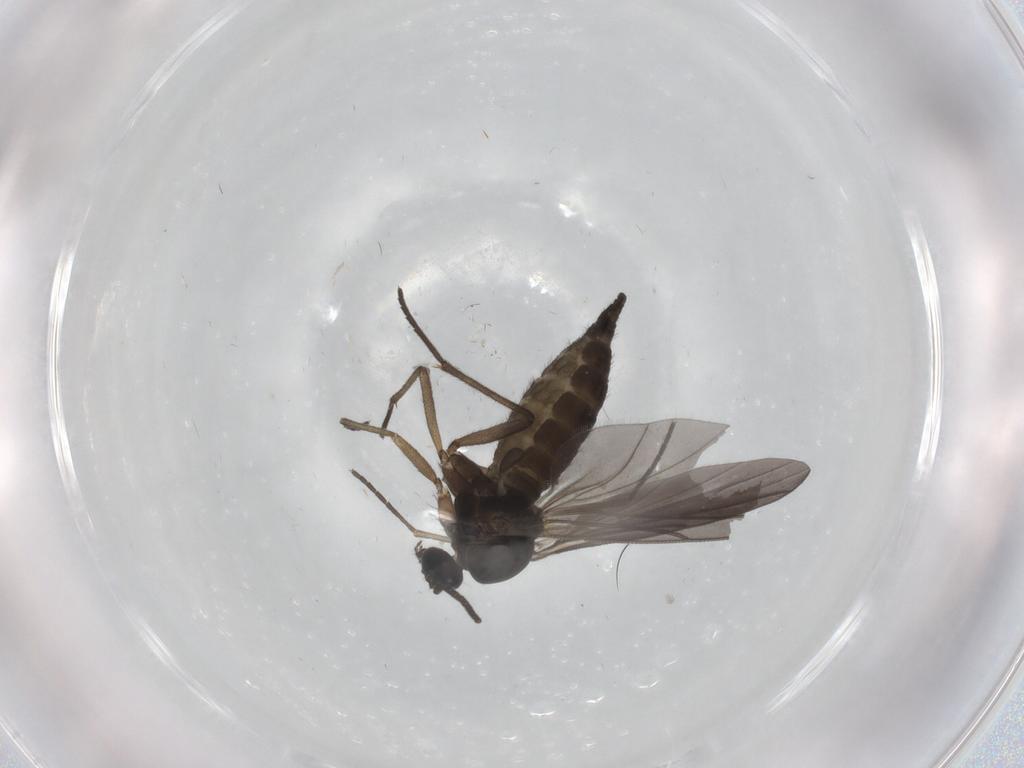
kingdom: Animalia
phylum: Arthropoda
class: Insecta
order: Diptera
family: Sciaridae
